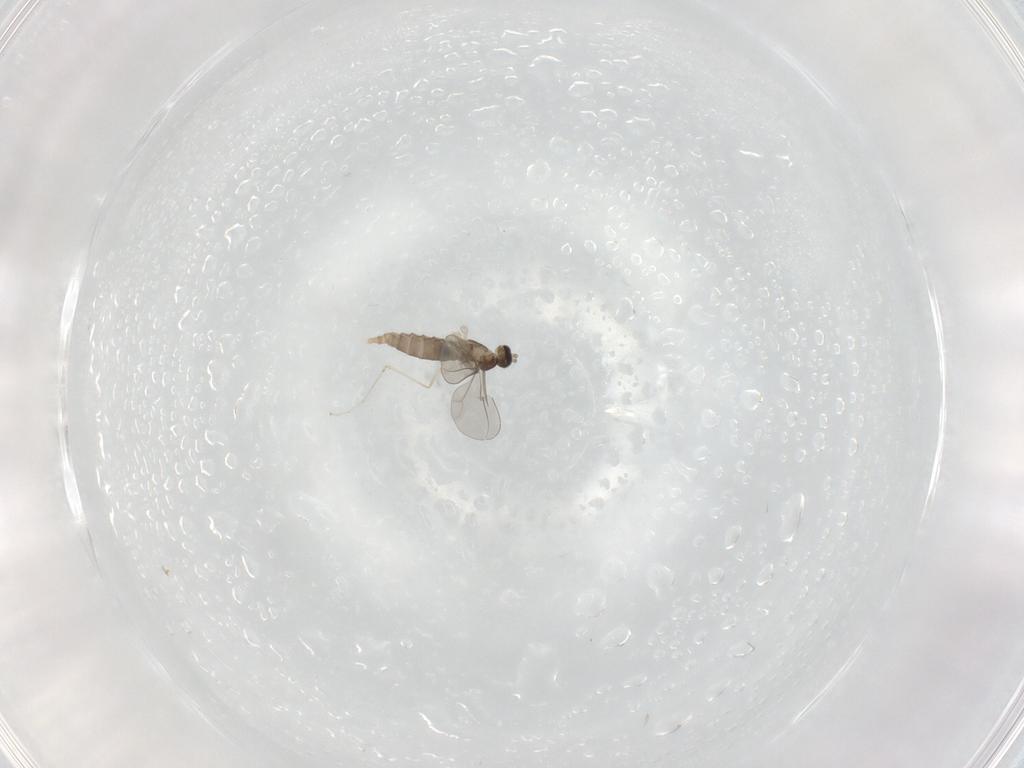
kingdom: Animalia
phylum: Arthropoda
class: Insecta
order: Diptera
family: Phoridae
